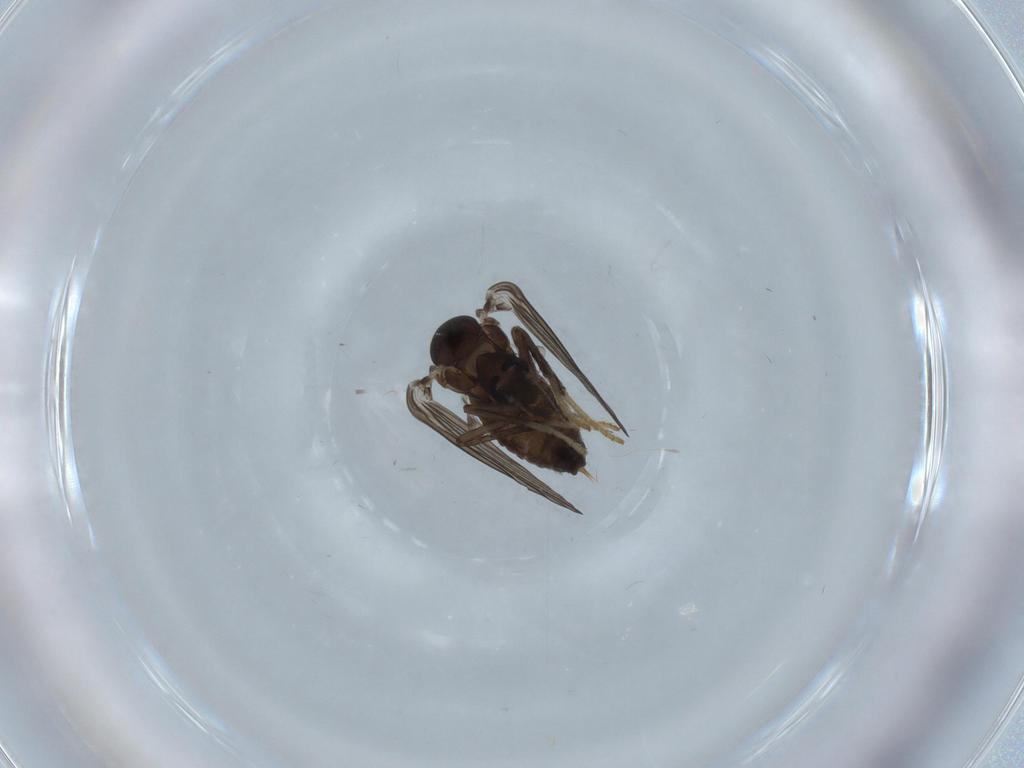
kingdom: Animalia
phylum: Arthropoda
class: Insecta
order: Diptera
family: Psychodidae
